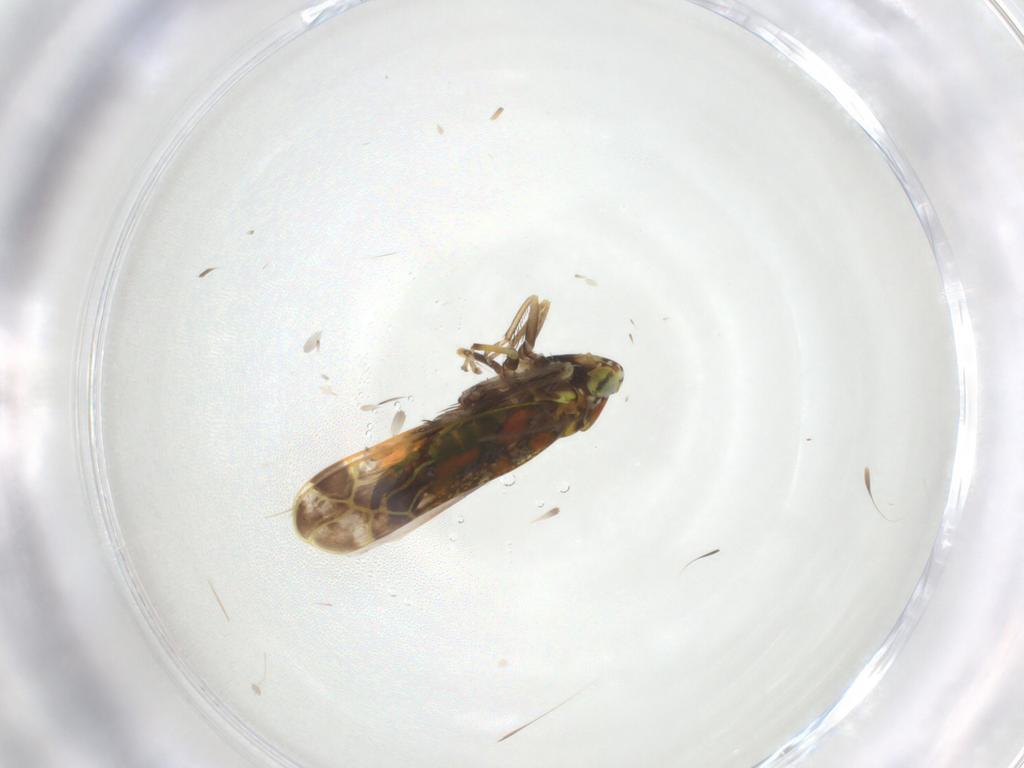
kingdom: Animalia
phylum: Arthropoda
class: Insecta
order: Hemiptera
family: Cicadellidae
